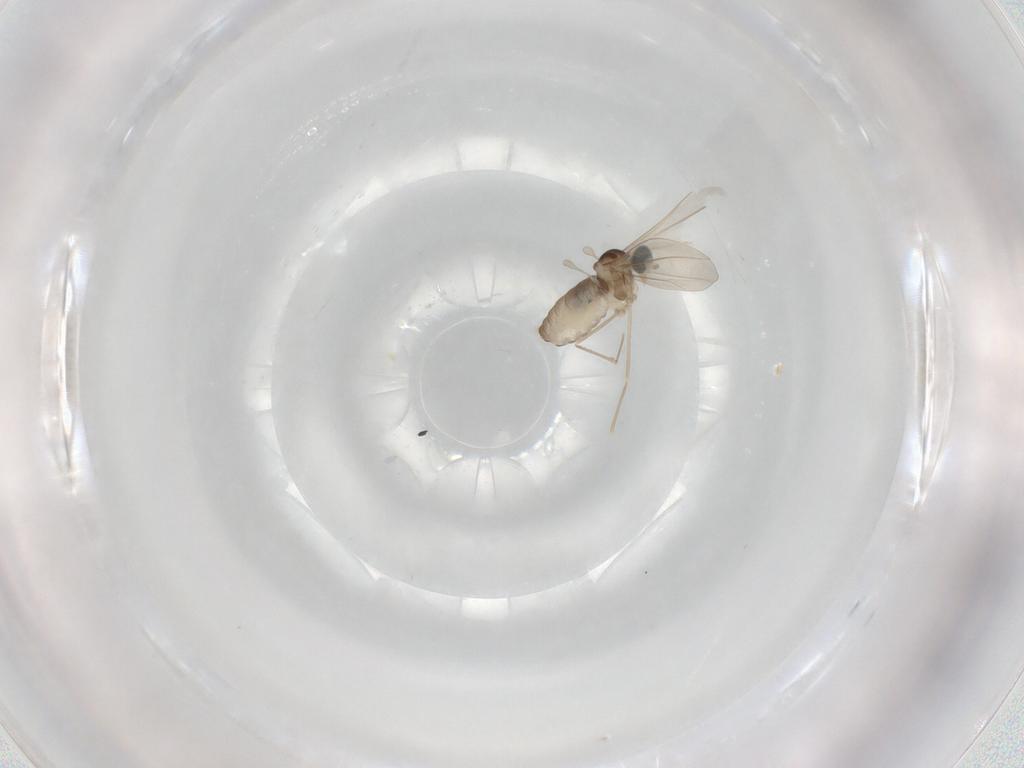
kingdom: Animalia
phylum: Arthropoda
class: Insecta
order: Diptera
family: Cecidomyiidae
